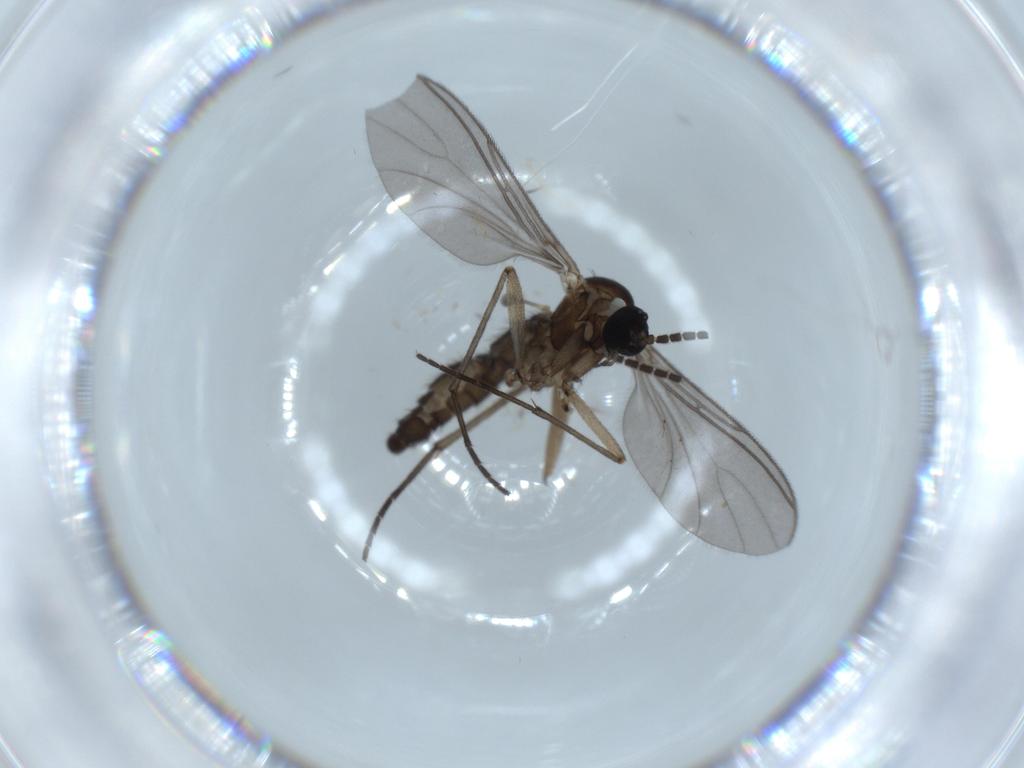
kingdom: Animalia
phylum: Arthropoda
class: Insecta
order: Diptera
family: Sciaridae
